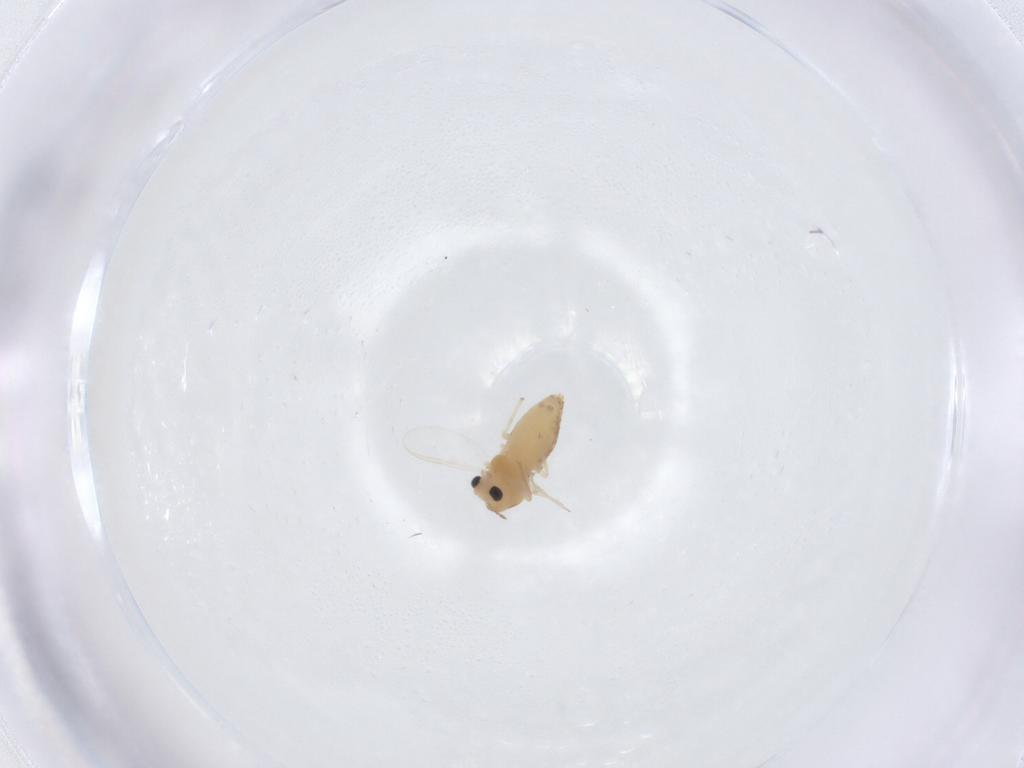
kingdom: Animalia
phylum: Arthropoda
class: Insecta
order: Diptera
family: Chironomidae
